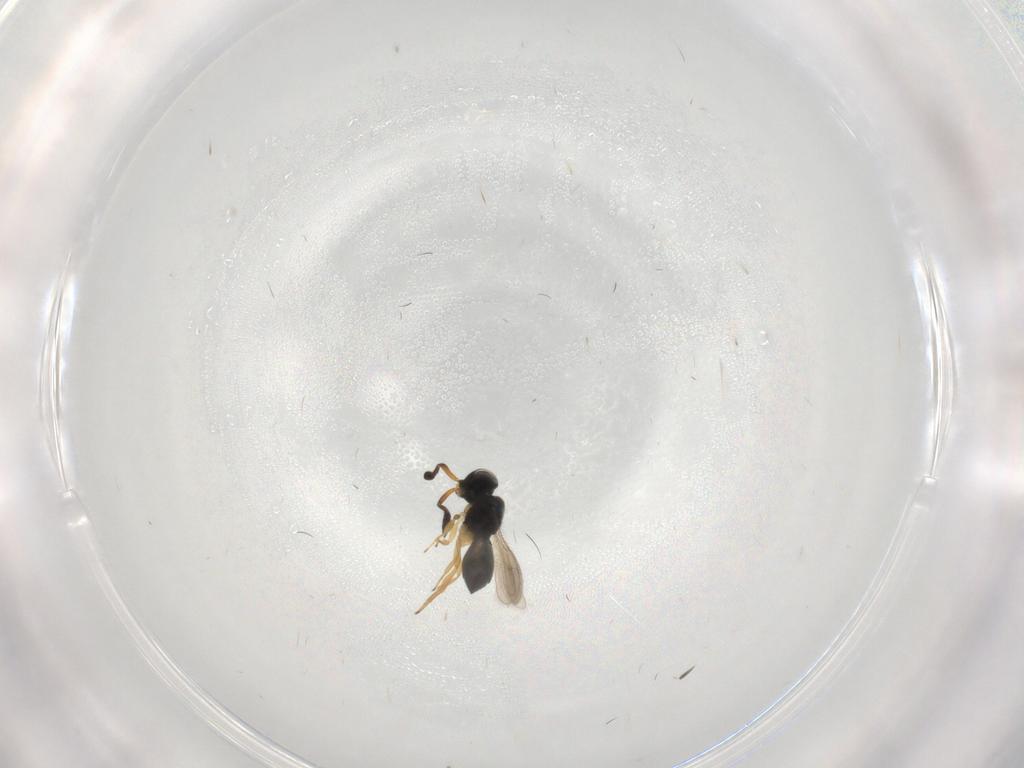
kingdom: Animalia
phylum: Arthropoda
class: Insecta
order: Hymenoptera
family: Scelionidae
